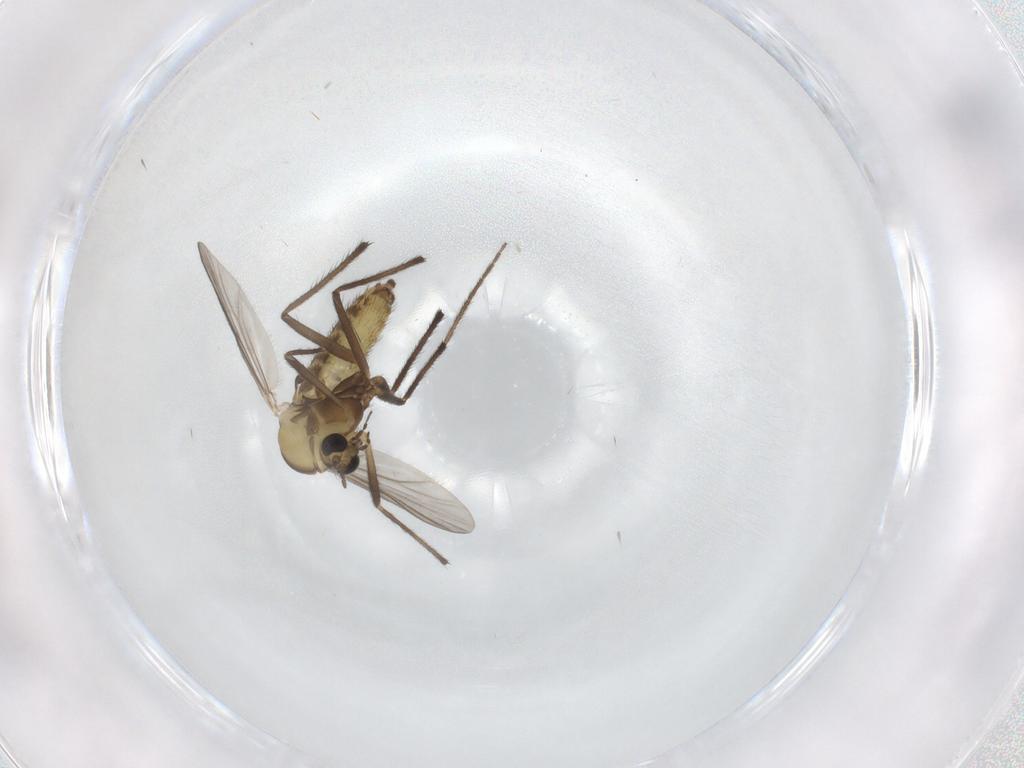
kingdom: Animalia
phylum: Arthropoda
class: Insecta
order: Diptera
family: Chironomidae
